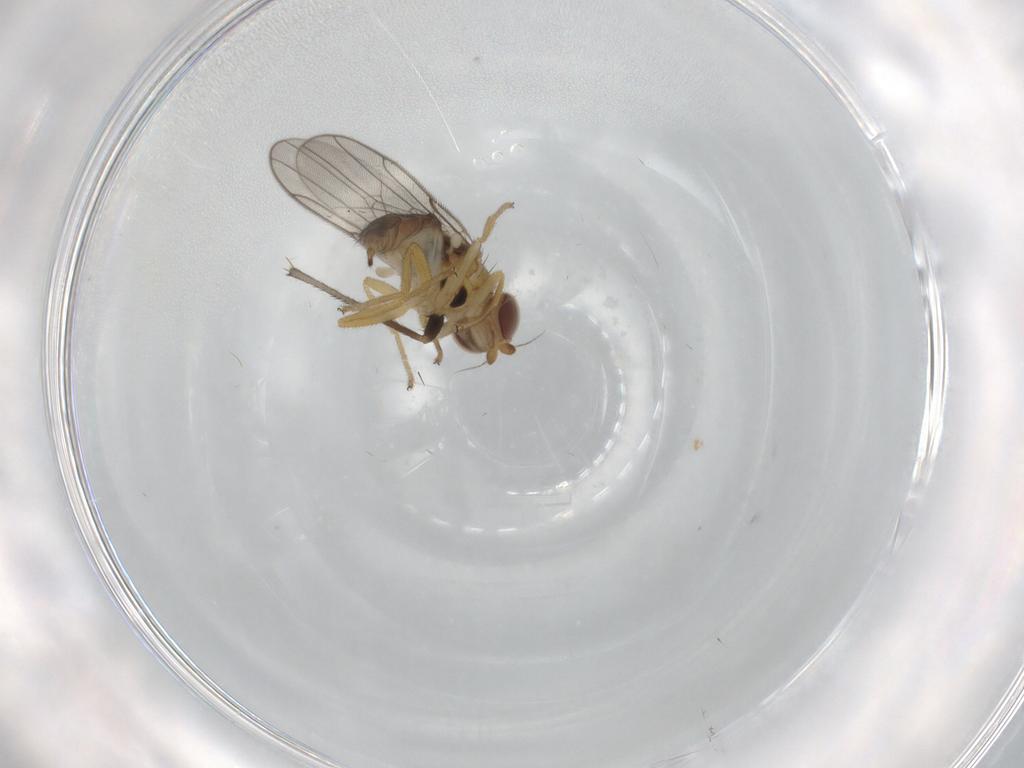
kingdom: Animalia
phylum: Arthropoda
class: Insecta
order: Diptera
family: Chloropidae
